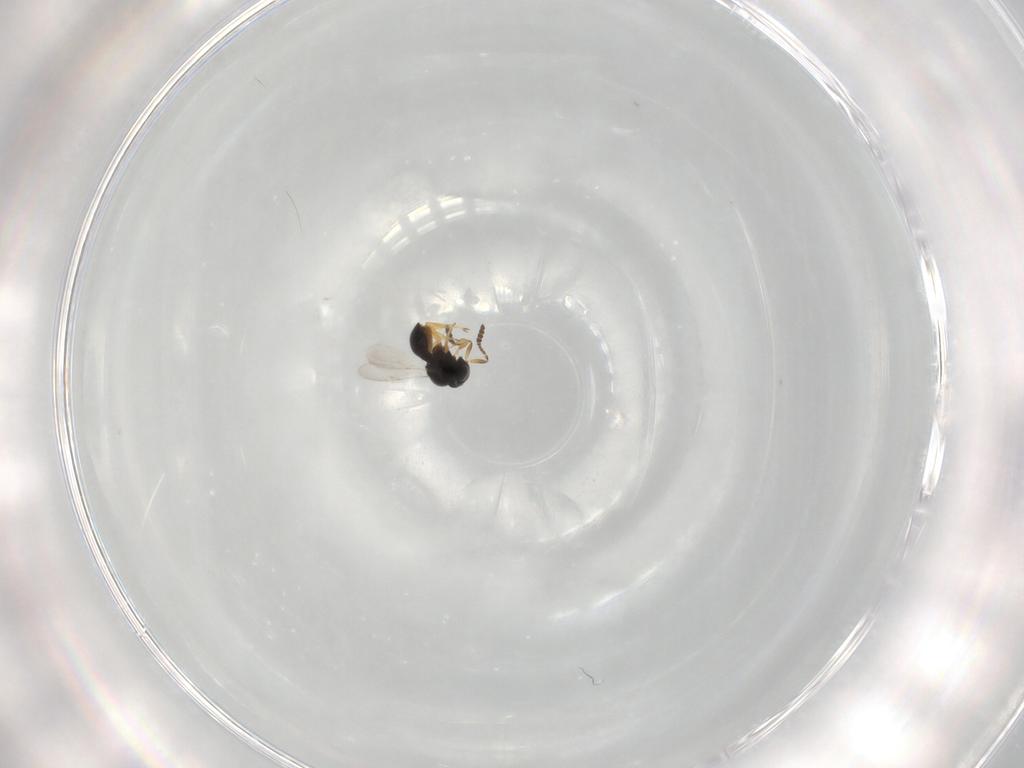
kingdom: Animalia
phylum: Arthropoda
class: Insecta
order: Hymenoptera
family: Scelionidae
